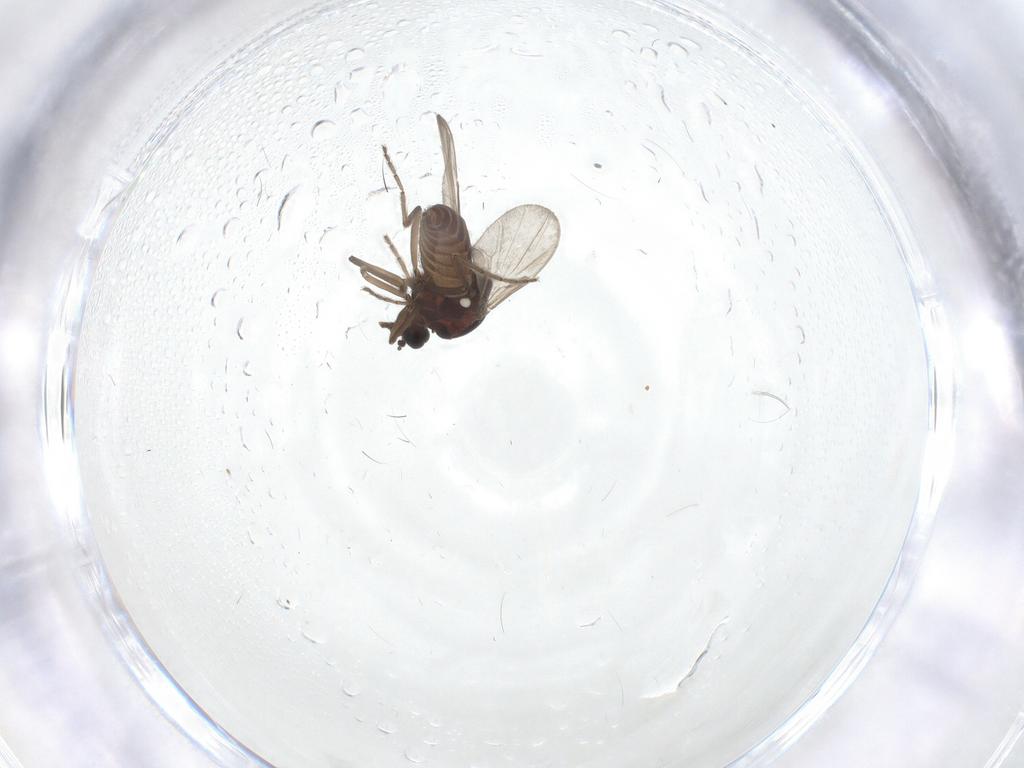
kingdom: Animalia
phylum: Arthropoda
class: Insecta
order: Diptera
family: Ceratopogonidae
